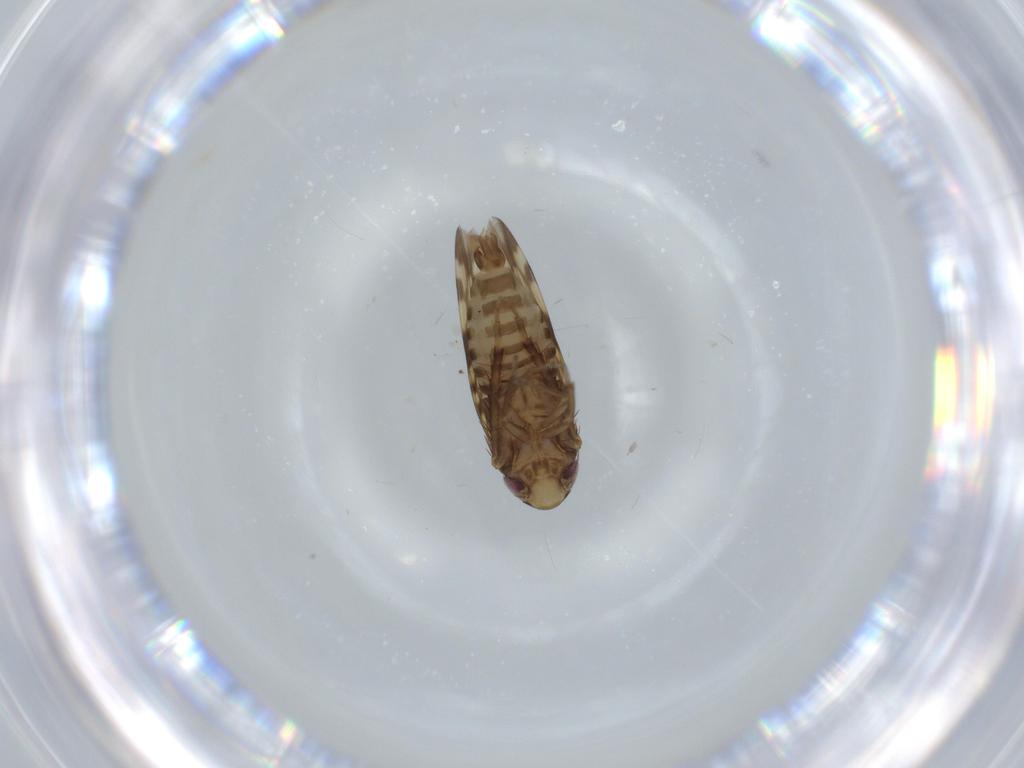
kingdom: Animalia
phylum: Arthropoda
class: Insecta
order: Hemiptera
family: Cicadellidae
